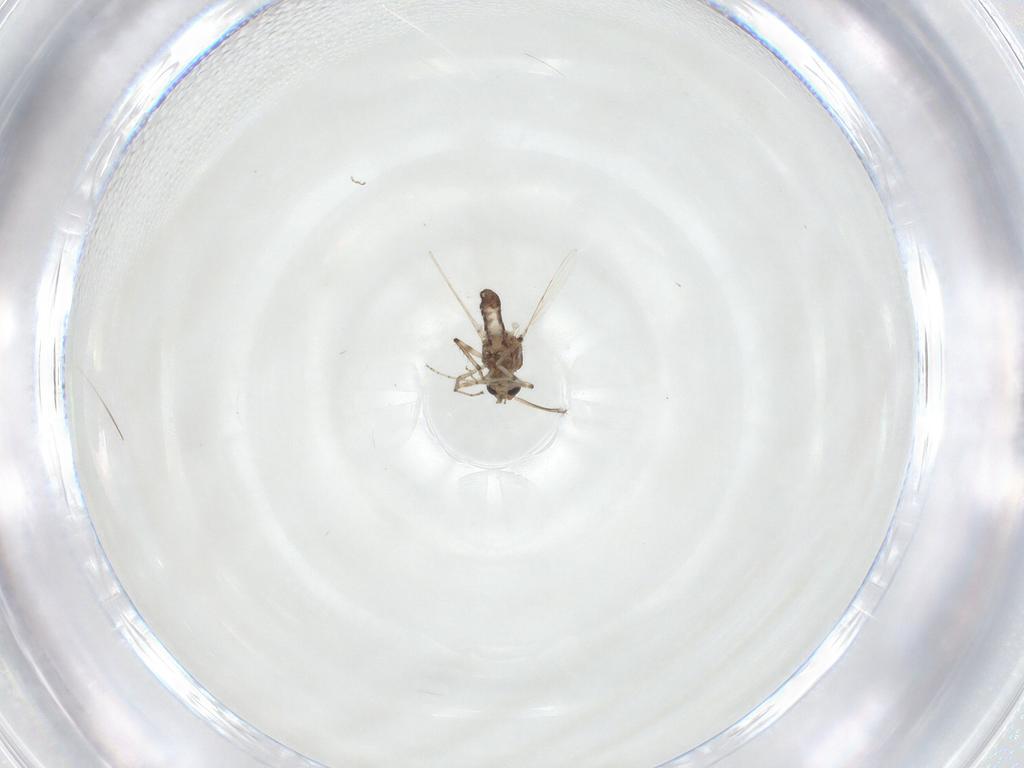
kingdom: Animalia
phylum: Arthropoda
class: Insecta
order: Diptera
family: Ceratopogonidae
